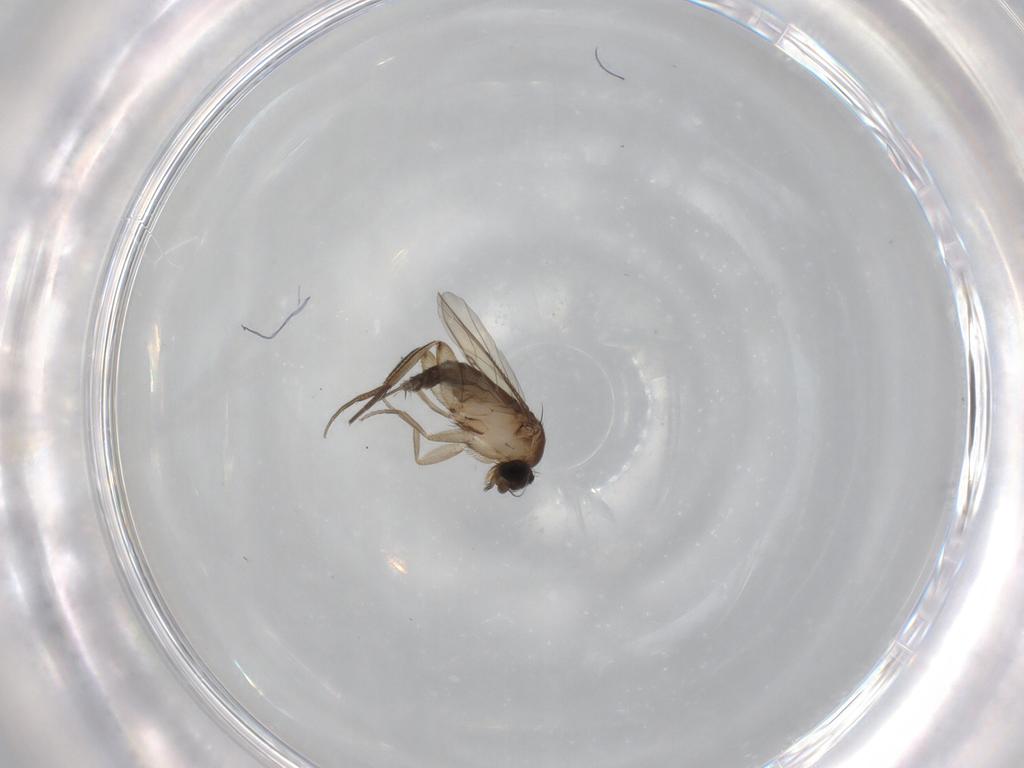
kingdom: Animalia
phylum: Arthropoda
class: Insecta
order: Diptera
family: Phoridae
